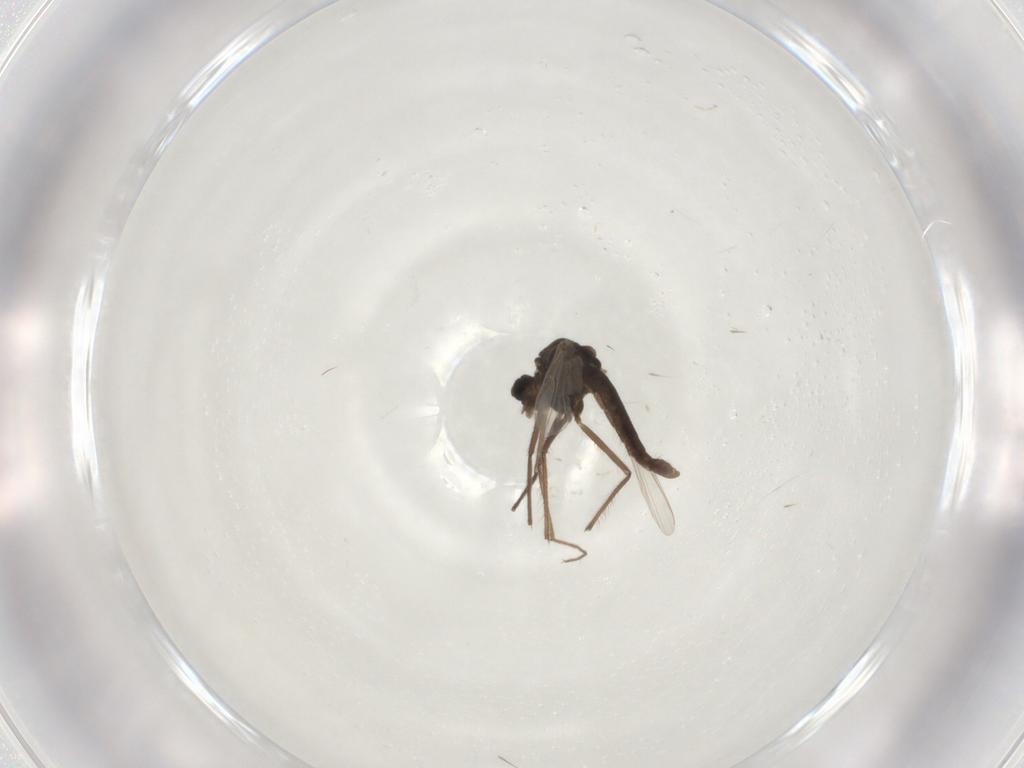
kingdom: Animalia
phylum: Arthropoda
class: Insecta
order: Diptera
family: Chironomidae
